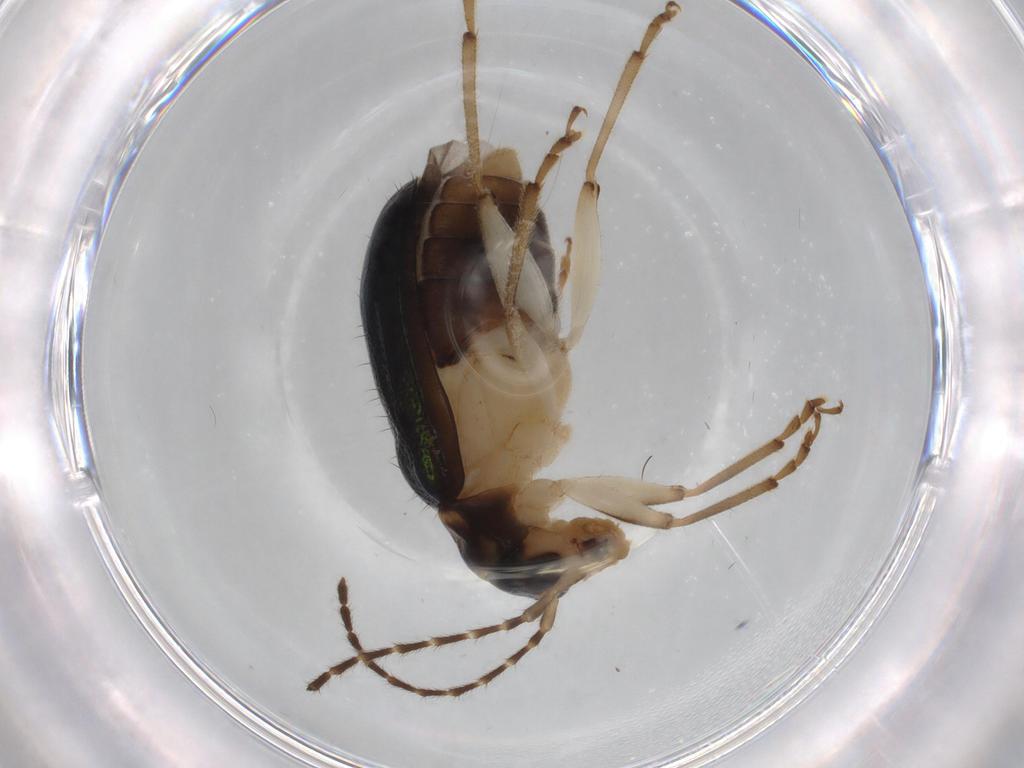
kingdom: Animalia
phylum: Arthropoda
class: Insecta
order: Coleoptera
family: Chrysomelidae
